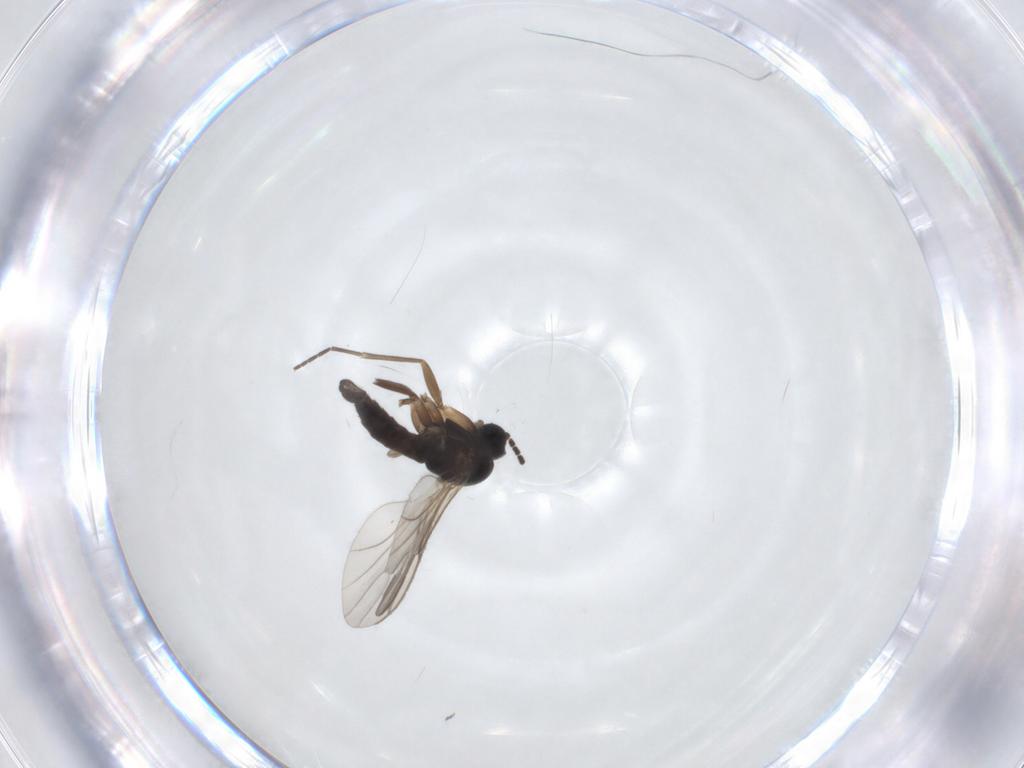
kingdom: Animalia
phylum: Arthropoda
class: Insecta
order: Diptera
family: Sciaridae
